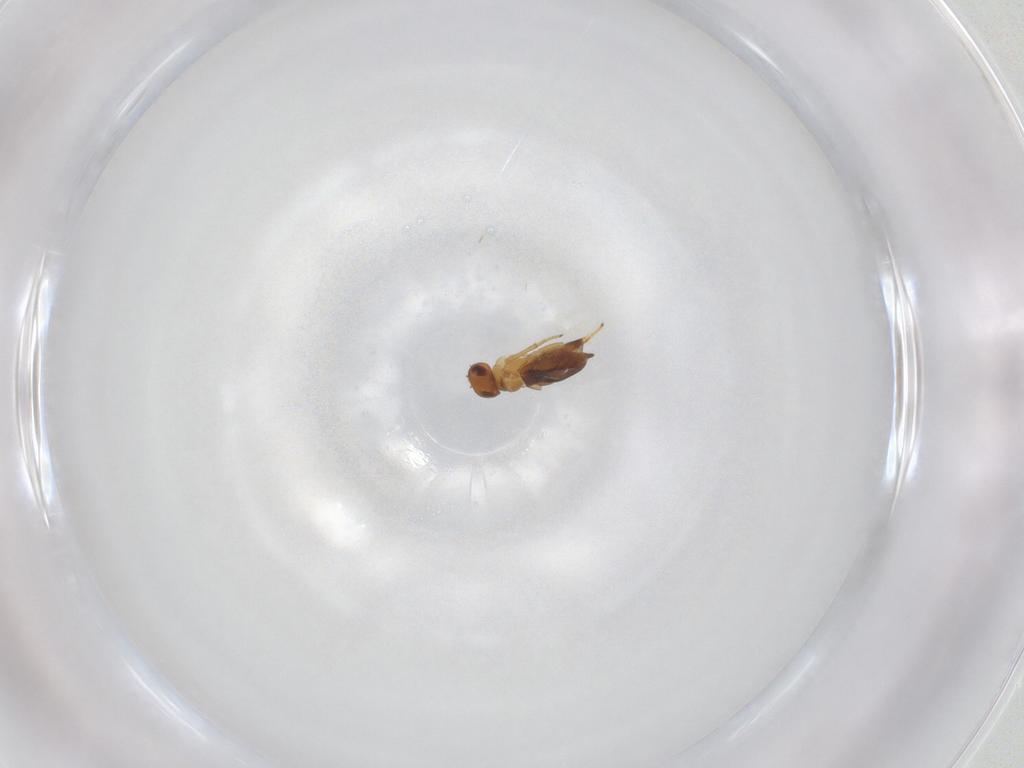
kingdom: Animalia
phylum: Arthropoda
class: Insecta
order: Hymenoptera
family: Encyrtidae
